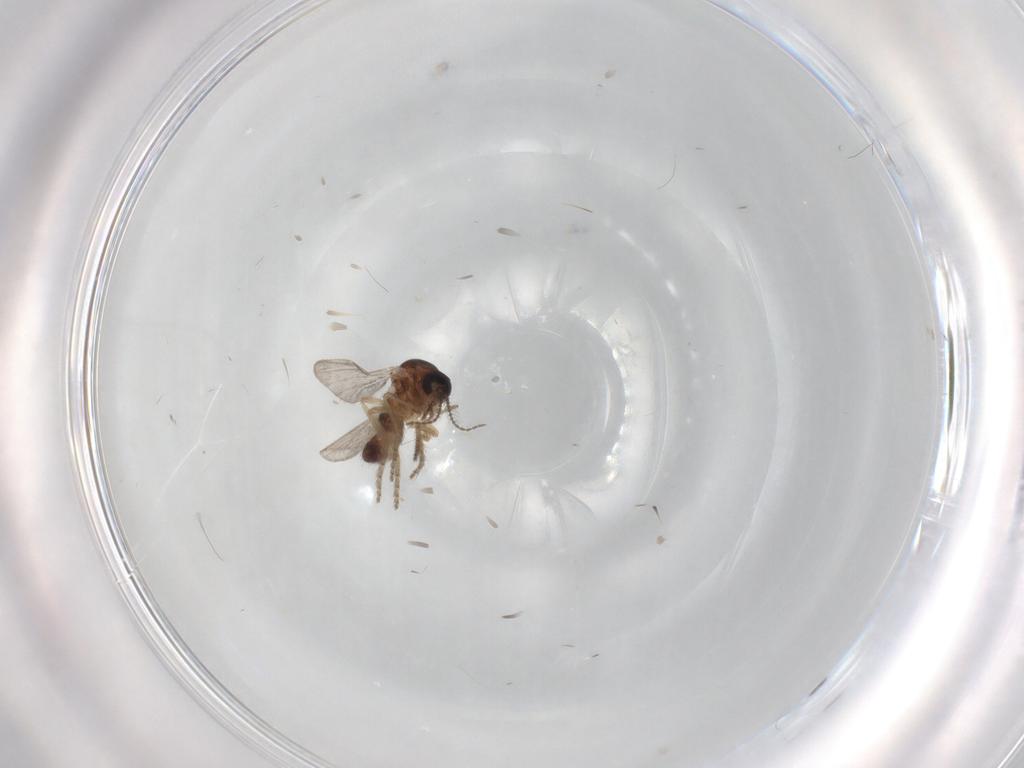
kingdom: Animalia
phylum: Arthropoda
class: Insecta
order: Diptera
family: Ceratopogonidae
